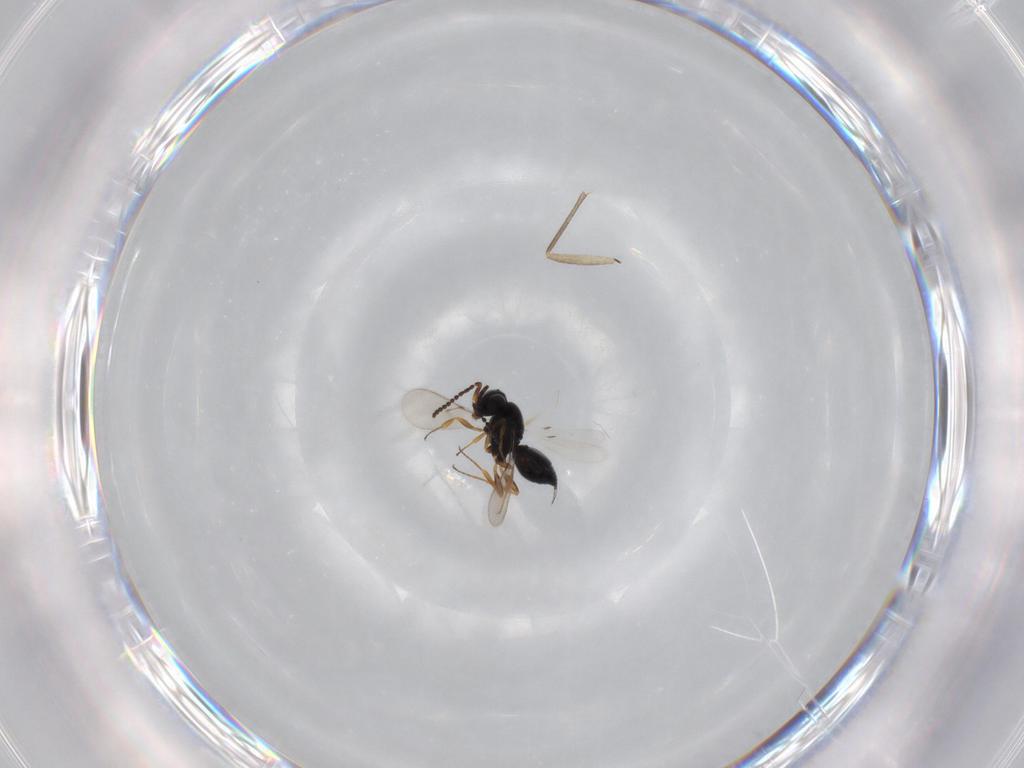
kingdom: Animalia
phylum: Arthropoda
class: Insecta
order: Hymenoptera
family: Scelionidae
